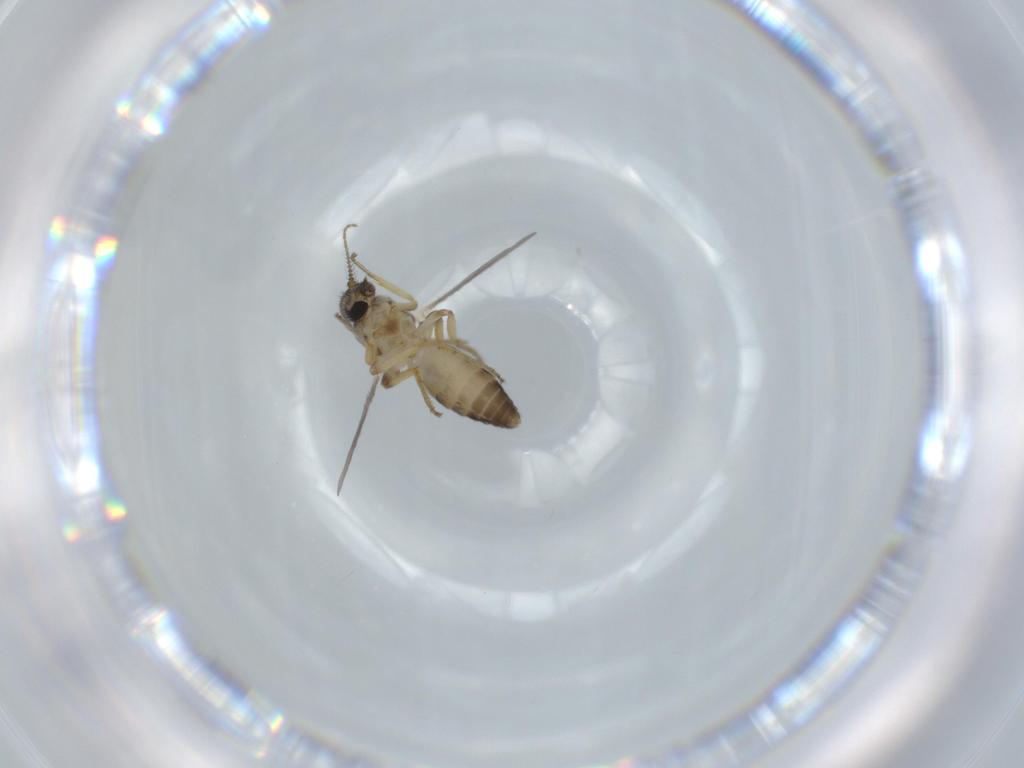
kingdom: Animalia
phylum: Arthropoda
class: Insecta
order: Diptera
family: Ceratopogonidae
